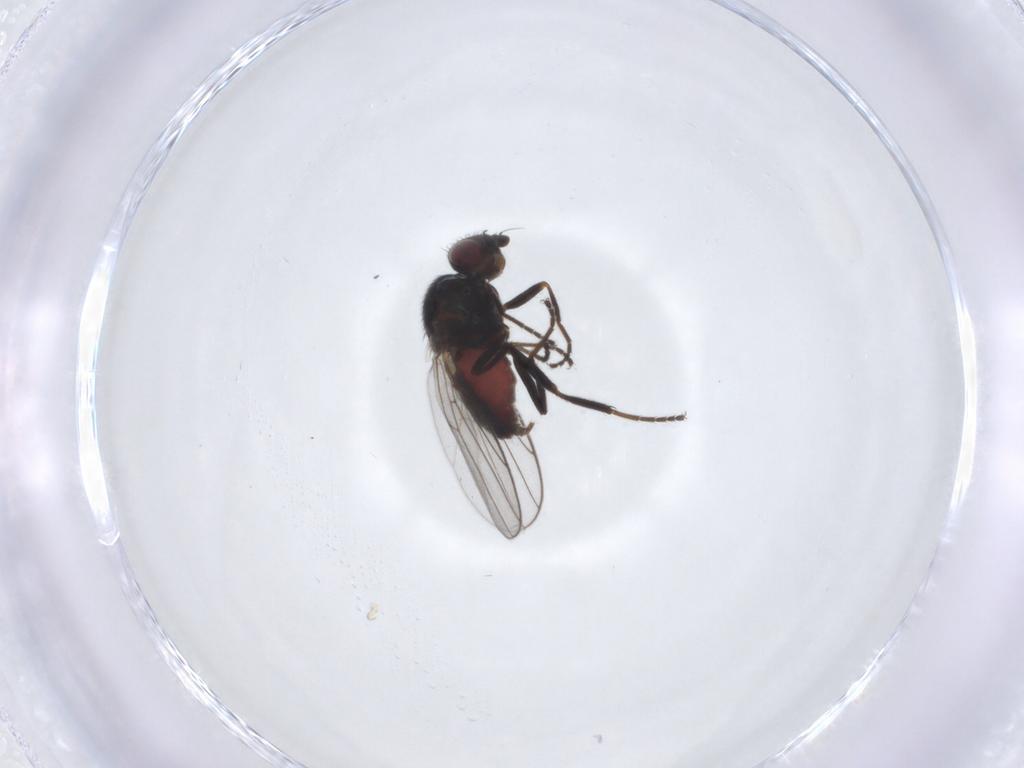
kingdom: Animalia
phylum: Arthropoda
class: Insecta
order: Diptera
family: Chloropidae
